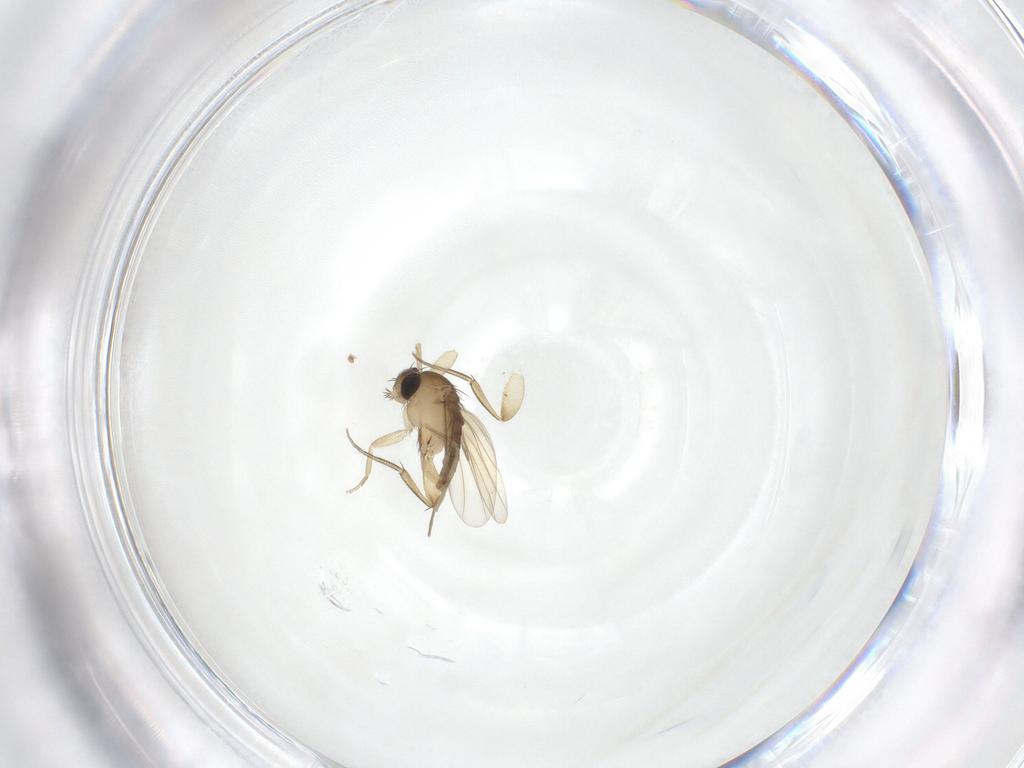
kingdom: Animalia
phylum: Arthropoda
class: Insecta
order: Diptera
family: Phoridae
